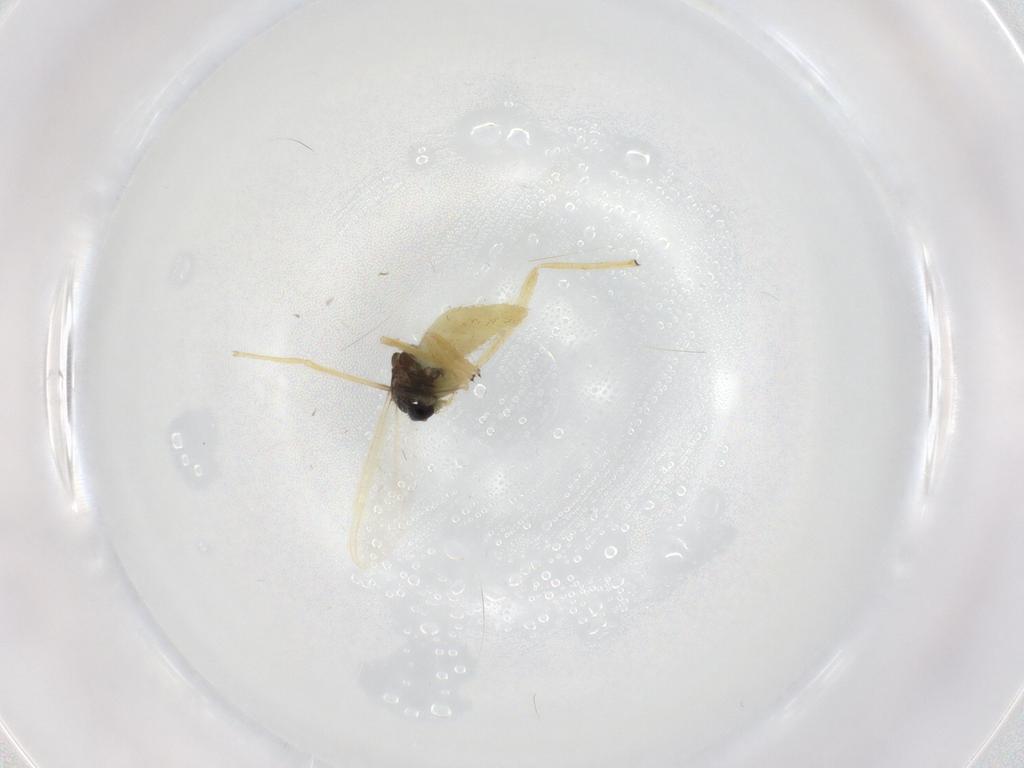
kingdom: Animalia
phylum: Arthropoda
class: Insecta
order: Diptera
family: Chironomidae
